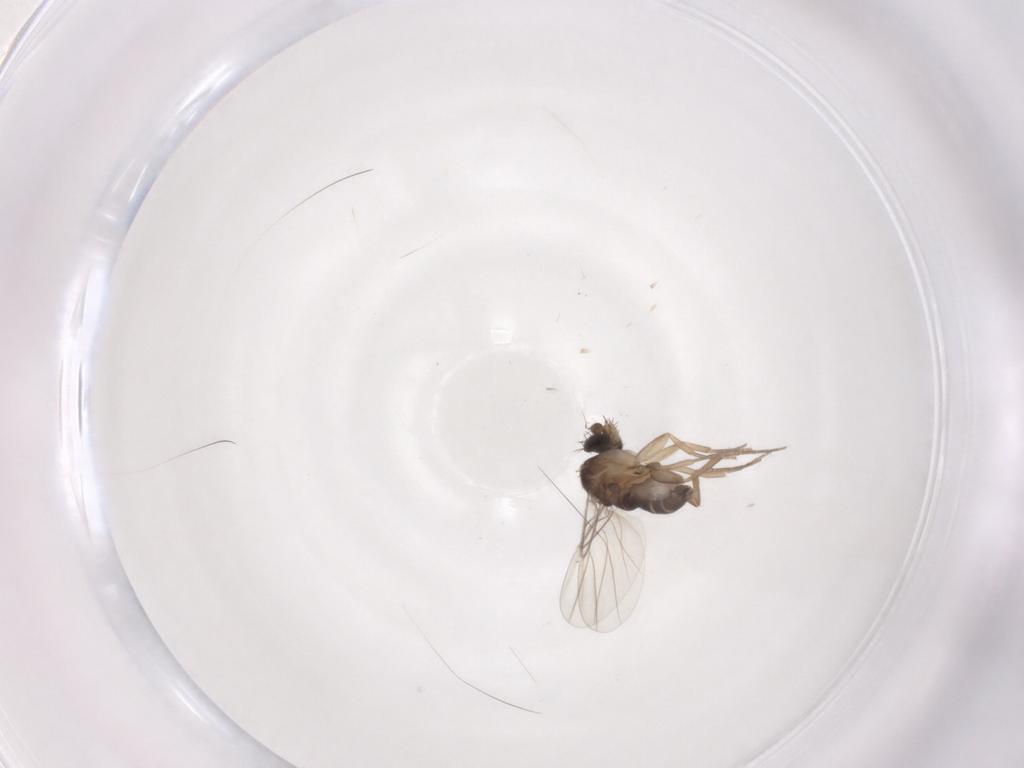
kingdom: Animalia
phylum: Arthropoda
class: Insecta
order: Diptera
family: Phoridae
